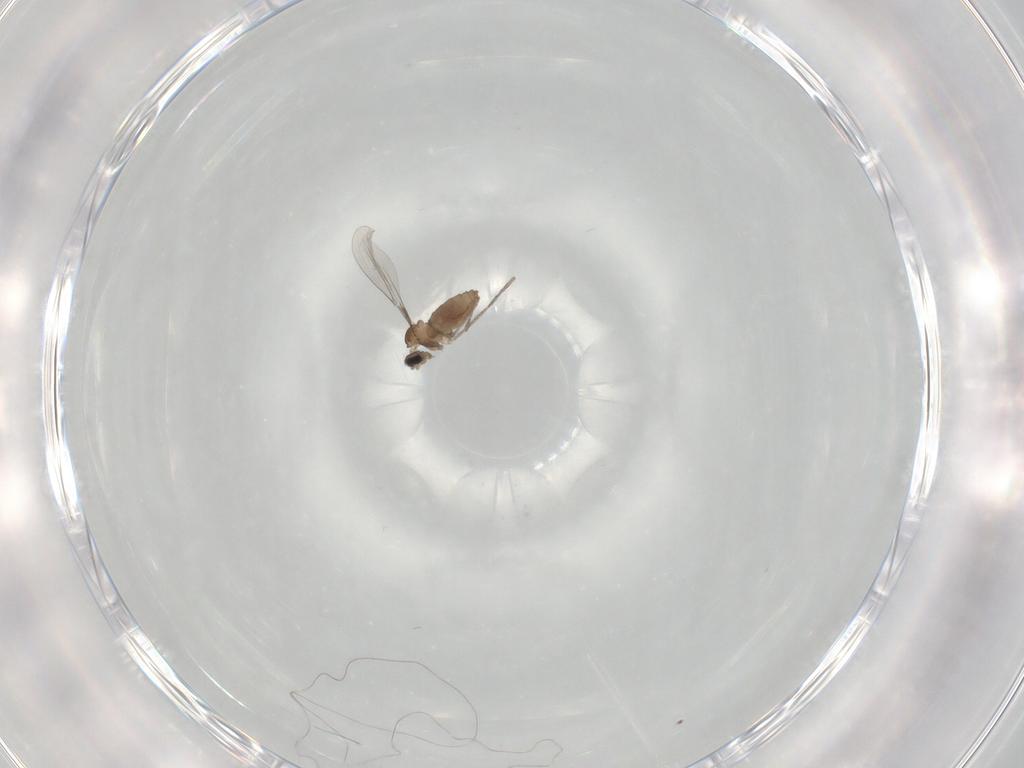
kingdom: Animalia
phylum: Arthropoda
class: Insecta
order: Diptera
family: Cecidomyiidae
